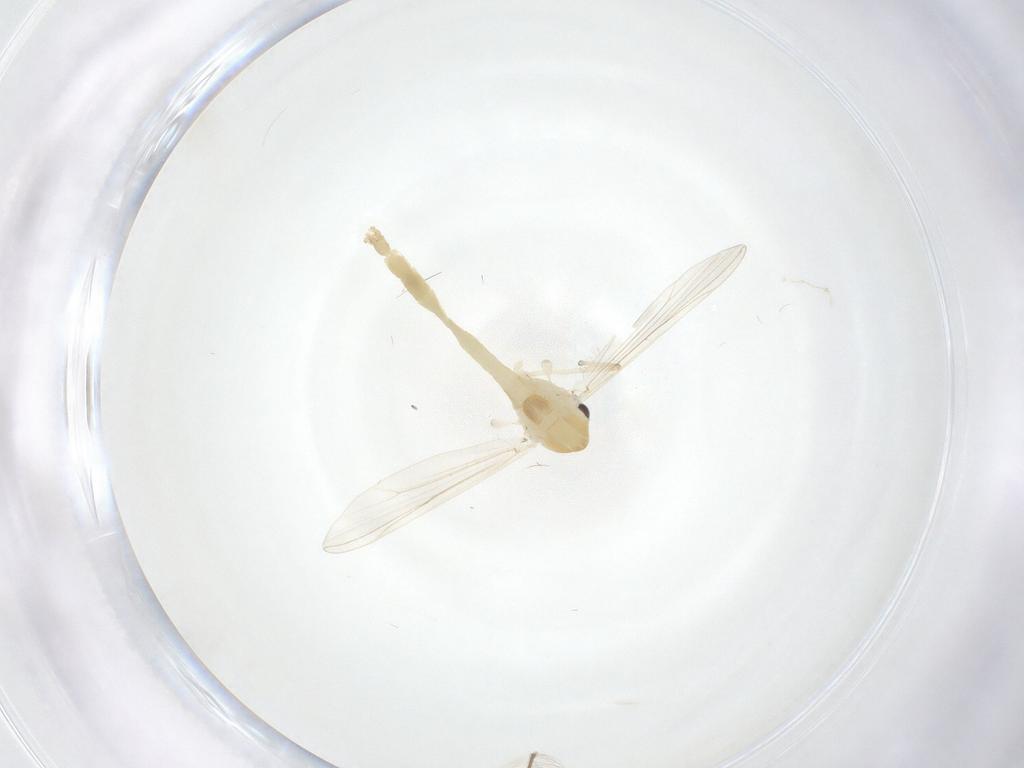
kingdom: Animalia
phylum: Arthropoda
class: Insecta
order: Diptera
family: Chironomidae
